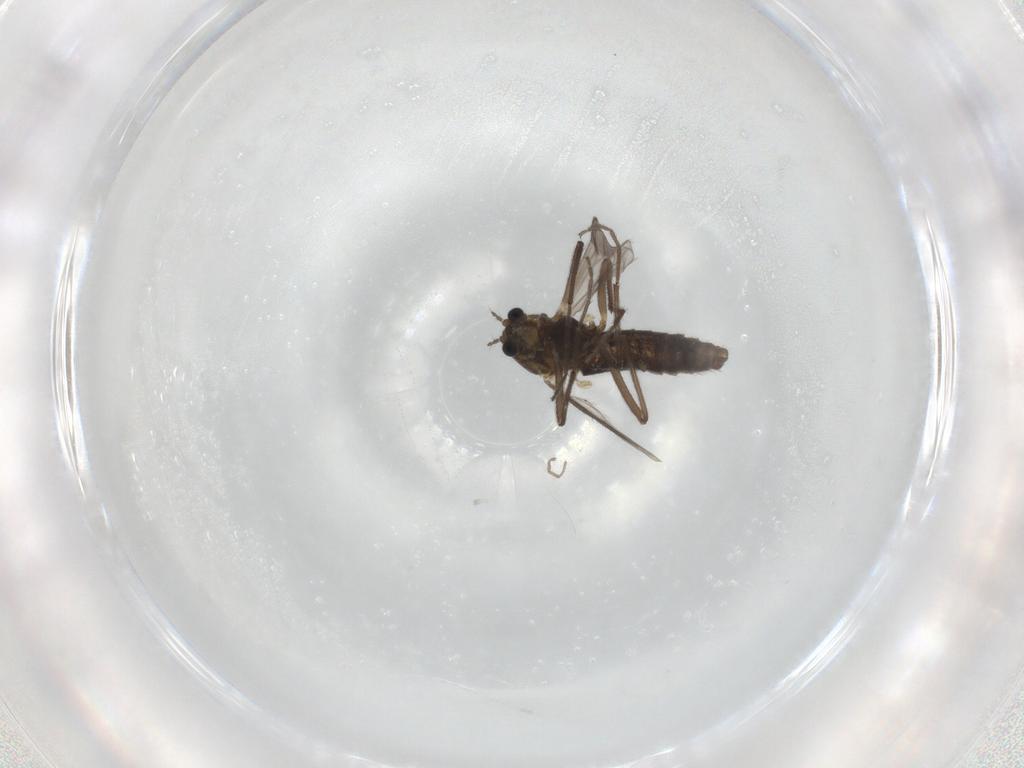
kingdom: Animalia
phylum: Arthropoda
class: Insecta
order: Diptera
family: Chironomidae
